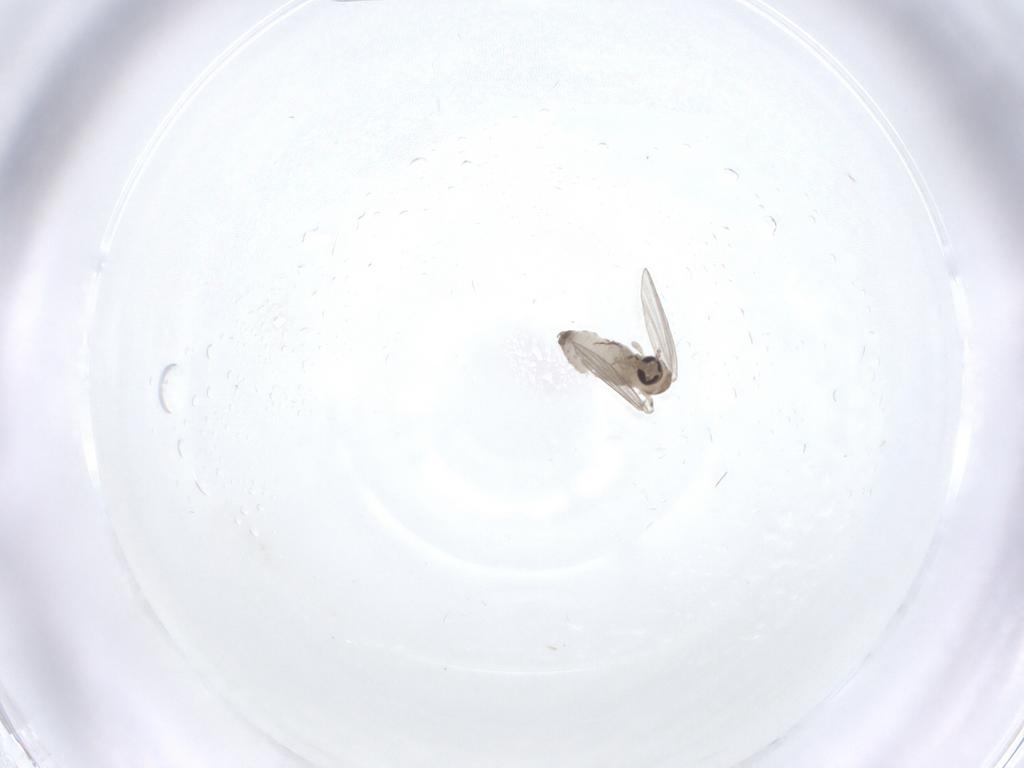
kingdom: Animalia
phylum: Arthropoda
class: Insecta
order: Diptera
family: Psychodidae
